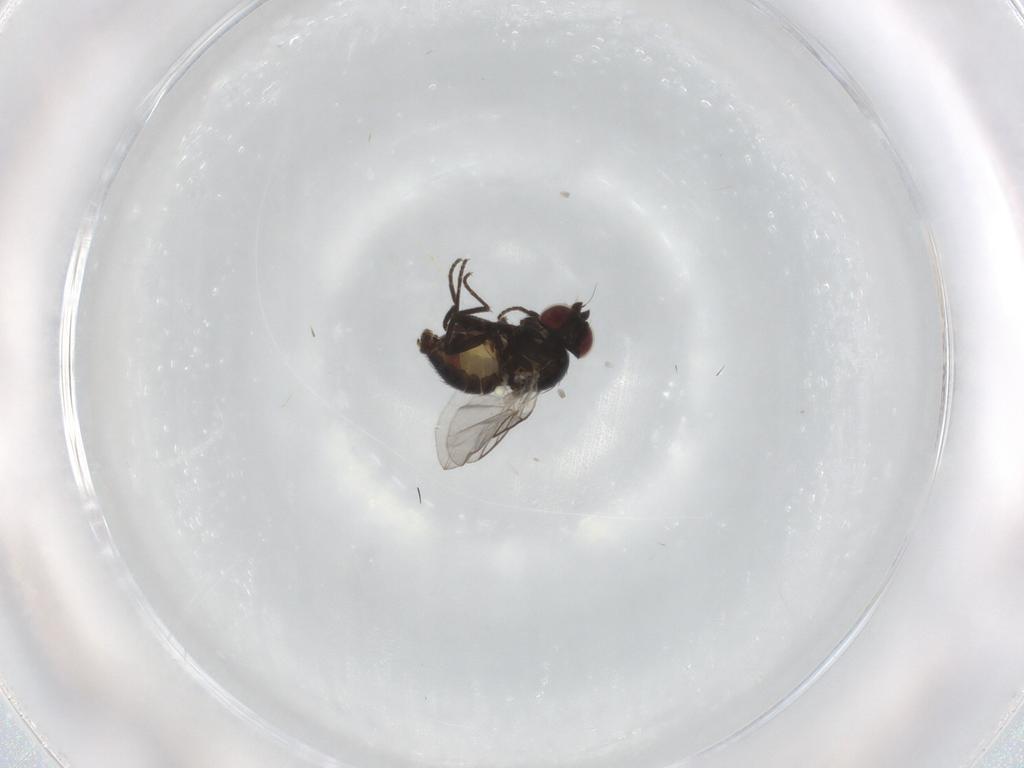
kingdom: Animalia
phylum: Arthropoda
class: Insecta
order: Diptera
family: Agromyzidae
